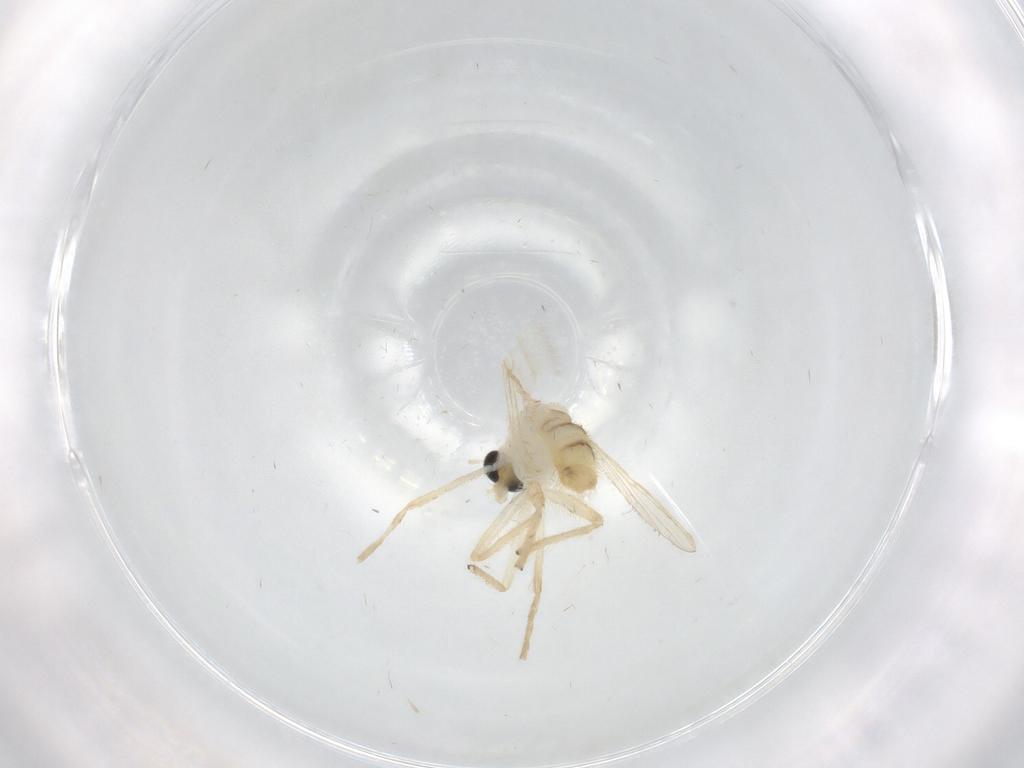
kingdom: Animalia
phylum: Arthropoda
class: Insecta
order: Diptera
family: Chironomidae
